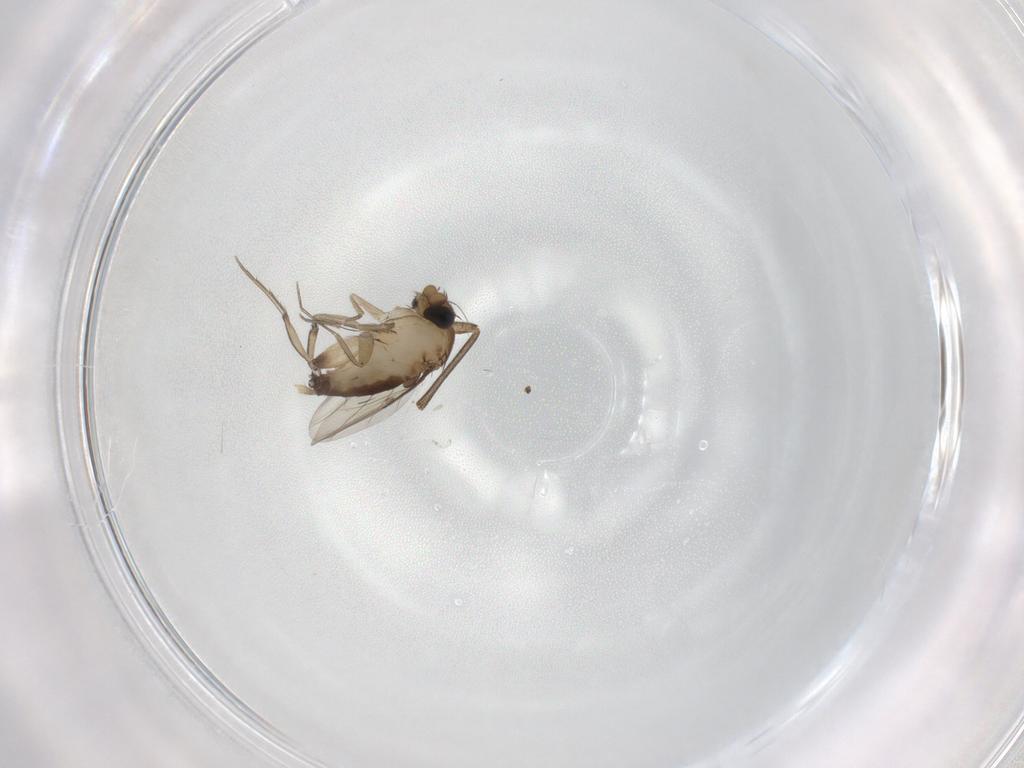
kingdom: Animalia
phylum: Arthropoda
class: Insecta
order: Diptera
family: Phoridae
